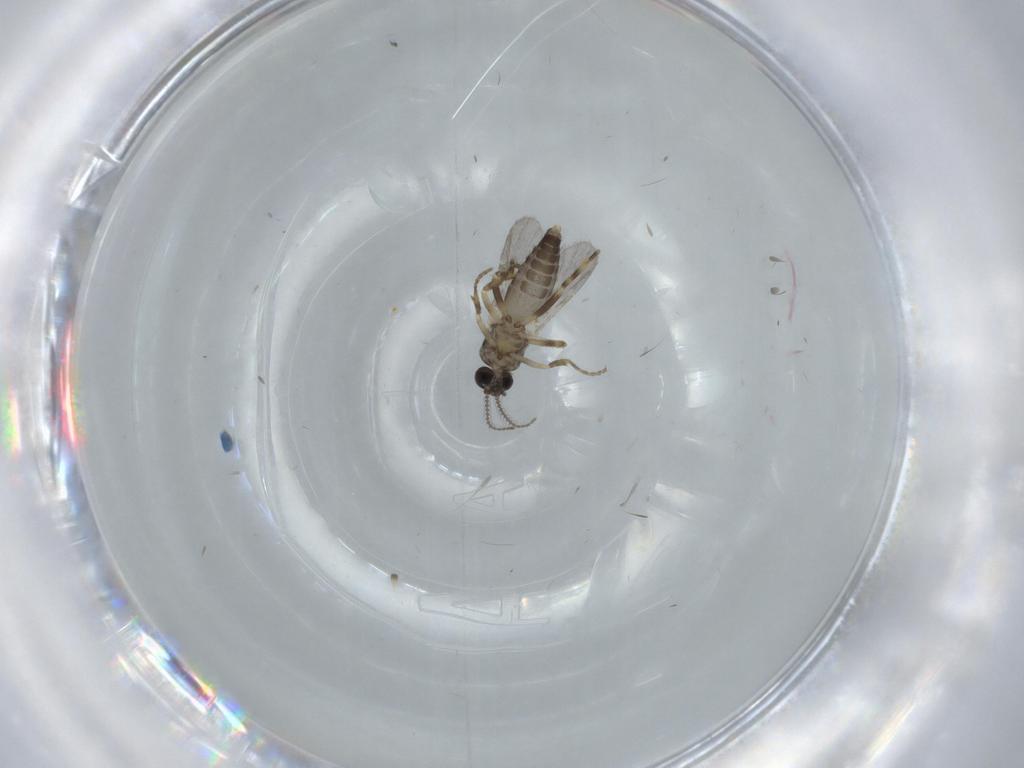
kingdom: Animalia
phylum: Arthropoda
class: Insecta
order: Diptera
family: Ceratopogonidae
